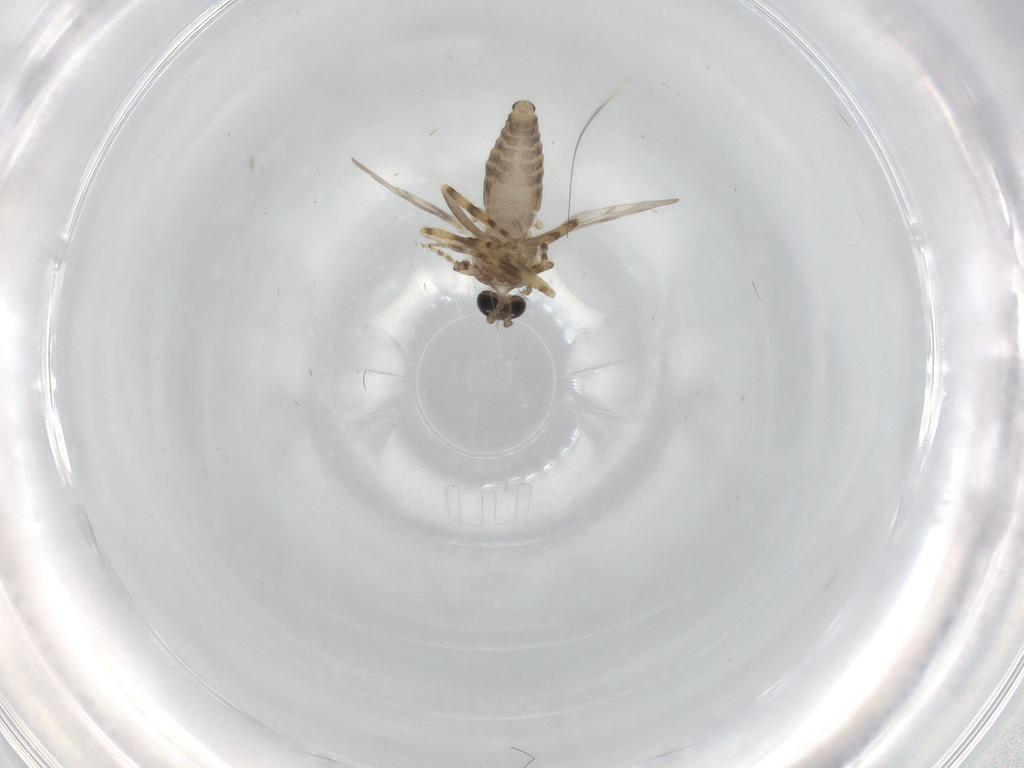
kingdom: Animalia
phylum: Arthropoda
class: Insecta
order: Diptera
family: Ceratopogonidae
